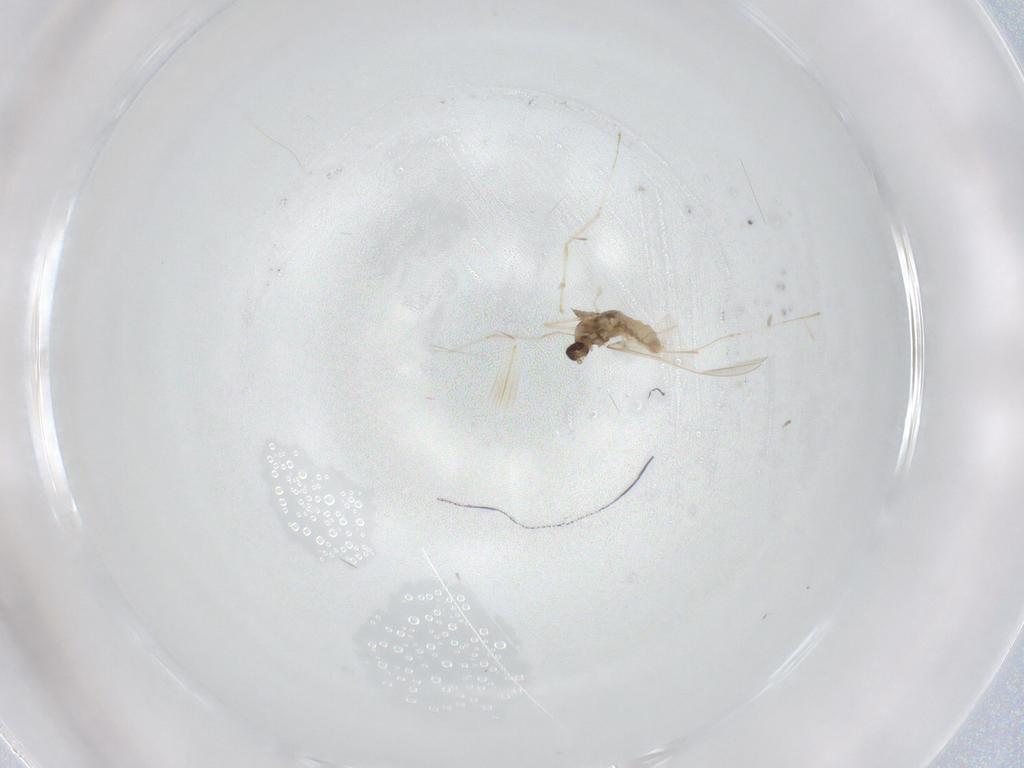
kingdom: Animalia
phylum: Arthropoda
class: Insecta
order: Diptera
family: Cecidomyiidae
